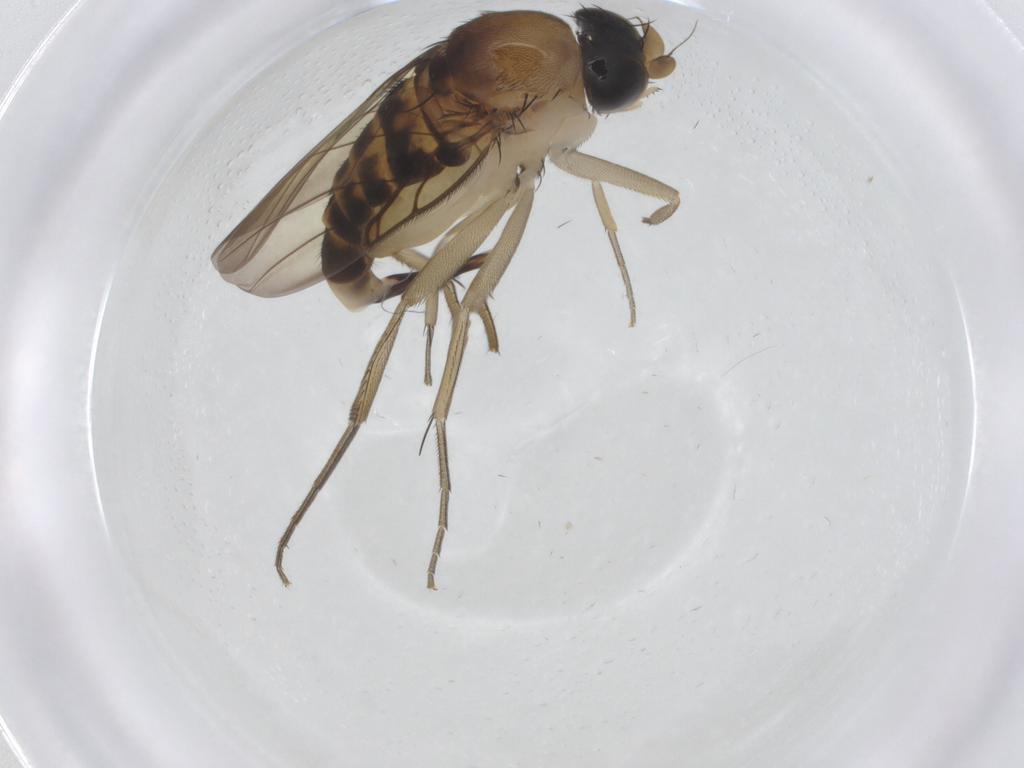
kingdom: Animalia
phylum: Arthropoda
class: Insecta
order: Diptera
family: Phoridae
